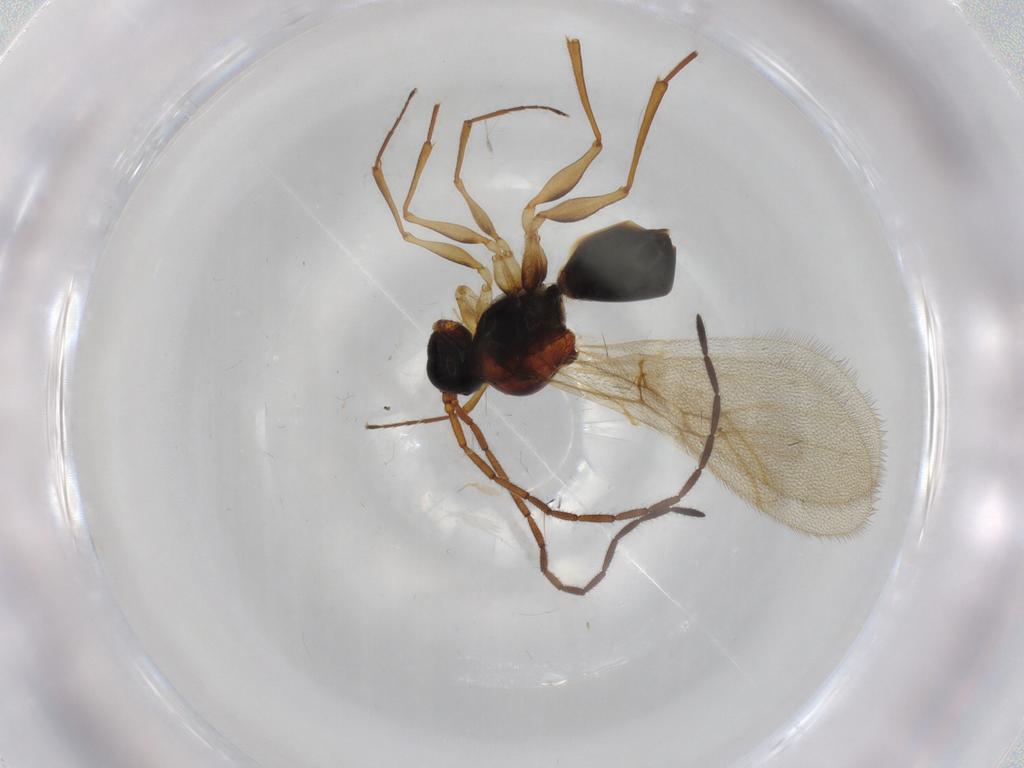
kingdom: Animalia
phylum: Arthropoda
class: Insecta
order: Hymenoptera
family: Figitidae
